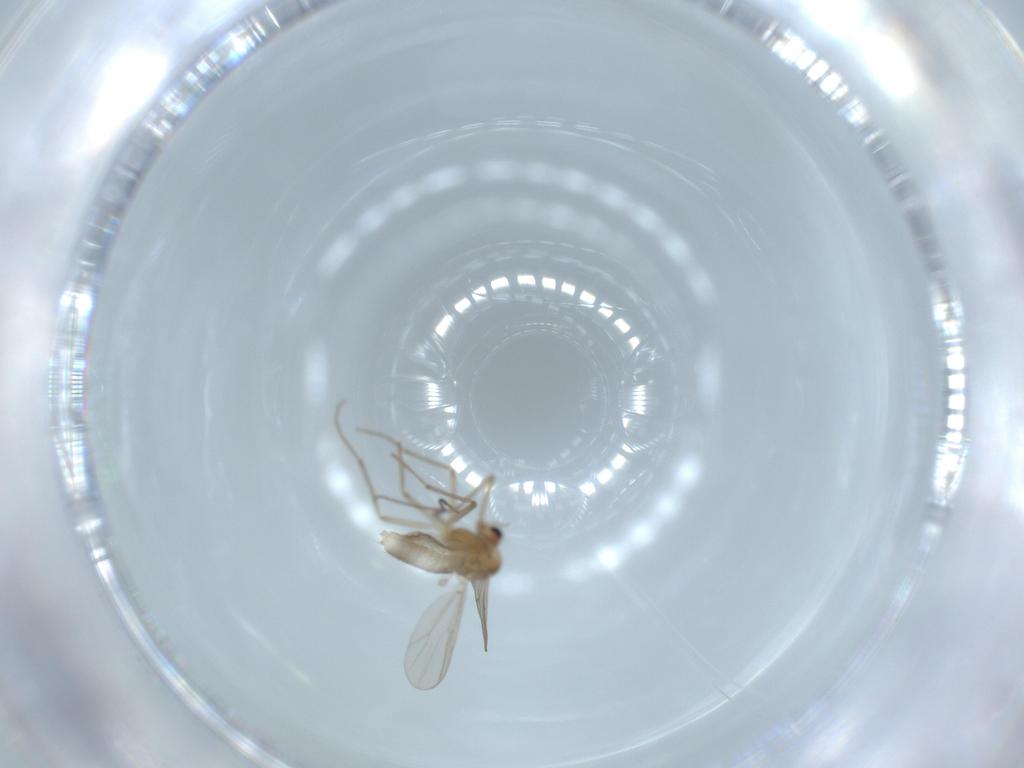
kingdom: Animalia
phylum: Arthropoda
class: Insecta
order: Diptera
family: Chironomidae
